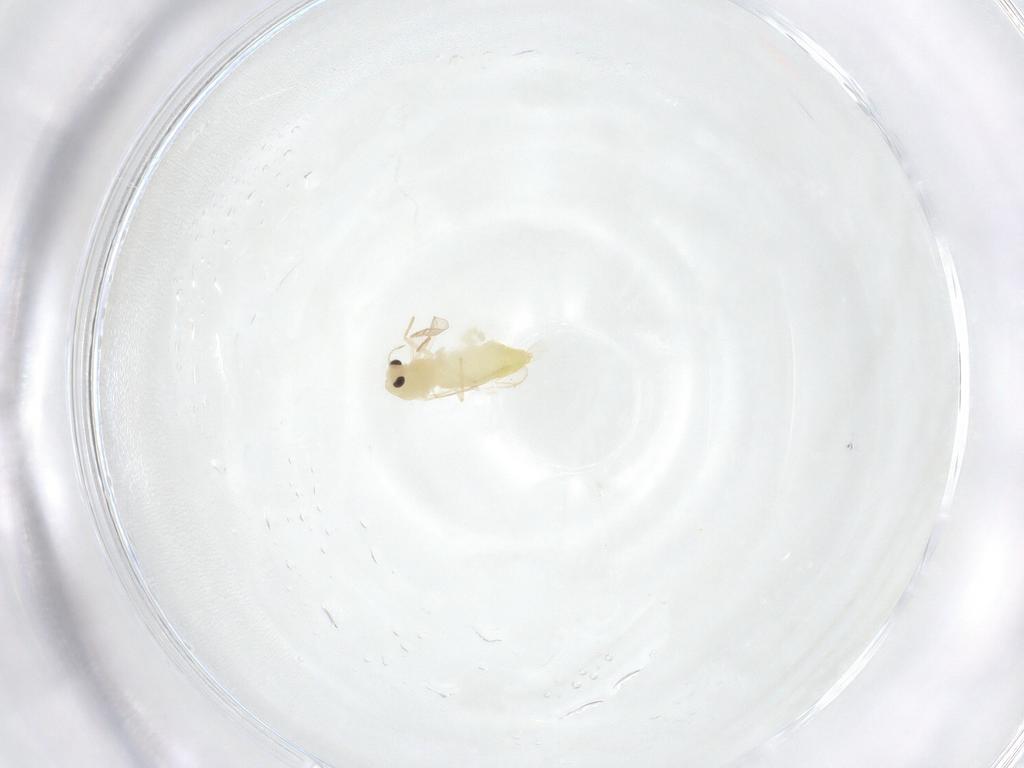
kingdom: Animalia
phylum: Arthropoda
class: Insecta
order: Diptera
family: Chironomidae
